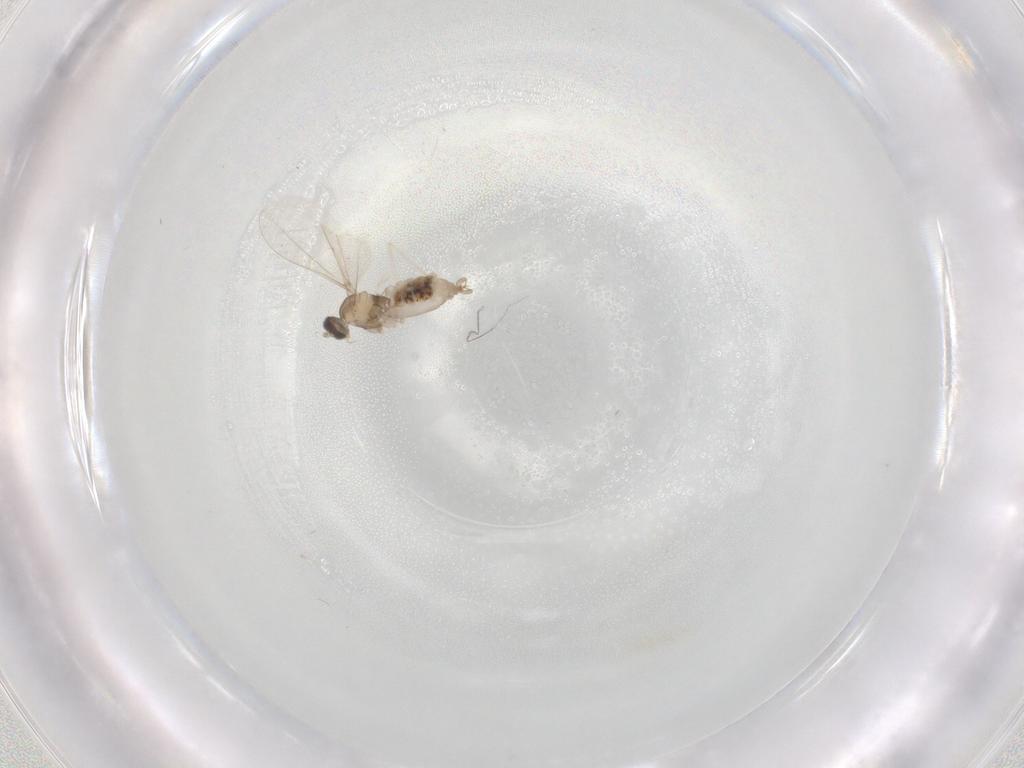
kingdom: Animalia
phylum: Arthropoda
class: Insecta
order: Diptera
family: Cecidomyiidae
